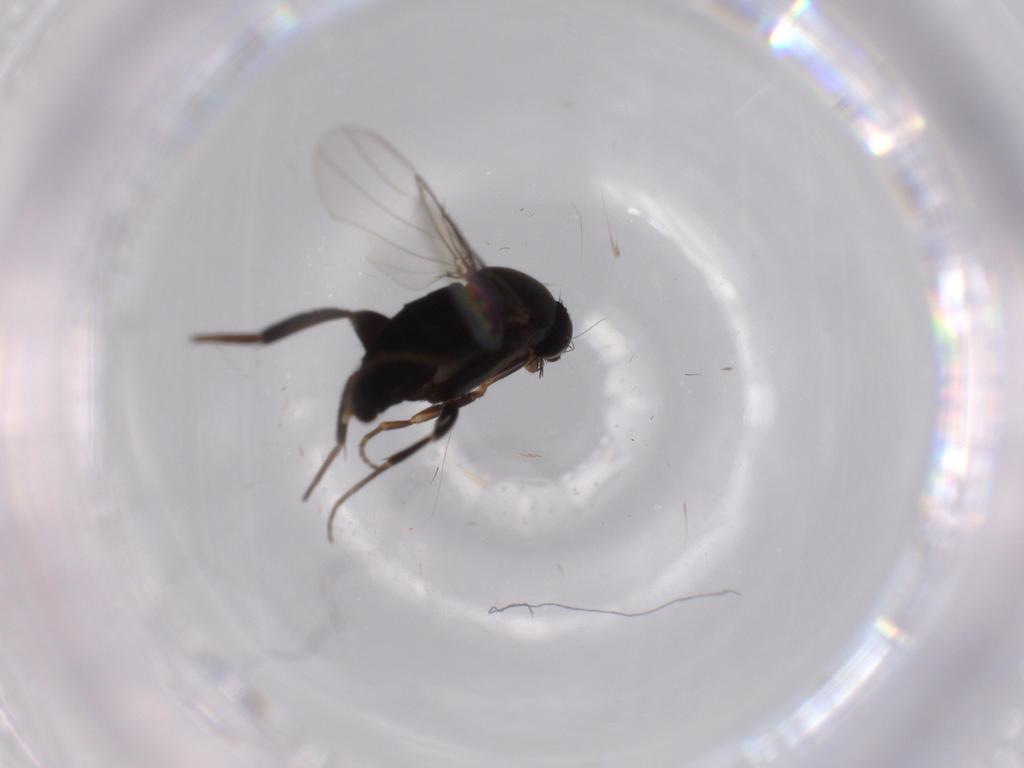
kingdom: Animalia
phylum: Arthropoda
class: Insecta
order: Diptera
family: Phoridae
